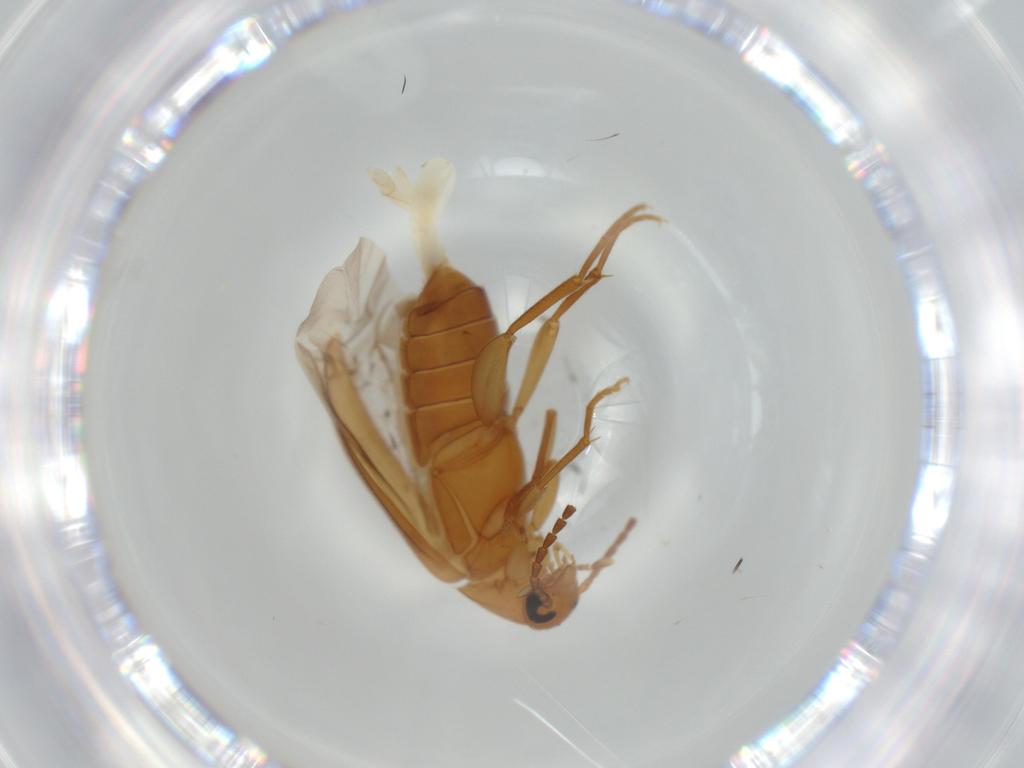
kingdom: Animalia
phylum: Arthropoda
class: Insecta
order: Coleoptera
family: Scraptiidae
